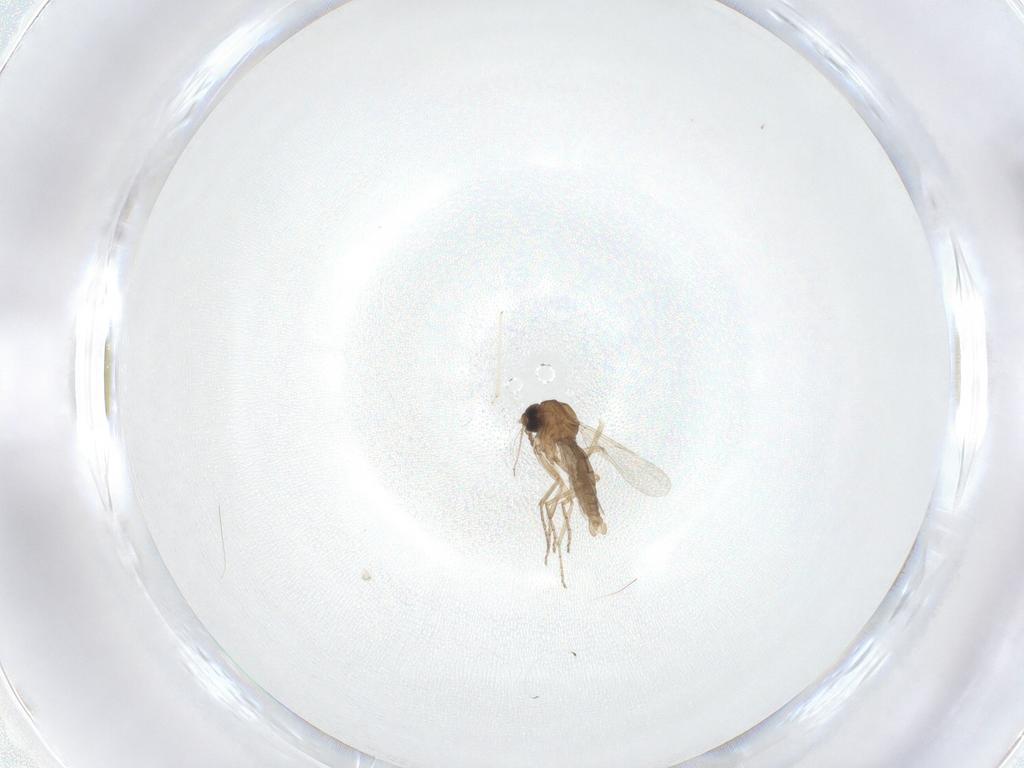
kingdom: Animalia
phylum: Arthropoda
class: Insecta
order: Diptera
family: Ceratopogonidae
